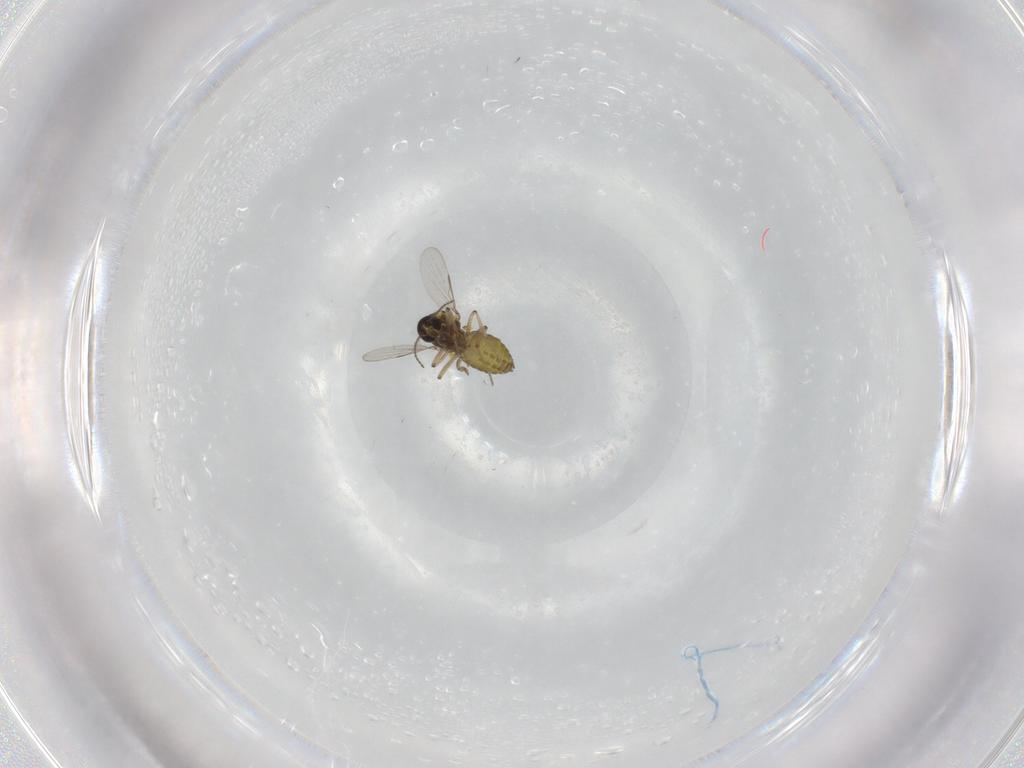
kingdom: Animalia
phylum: Arthropoda
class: Insecta
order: Diptera
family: Ceratopogonidae
